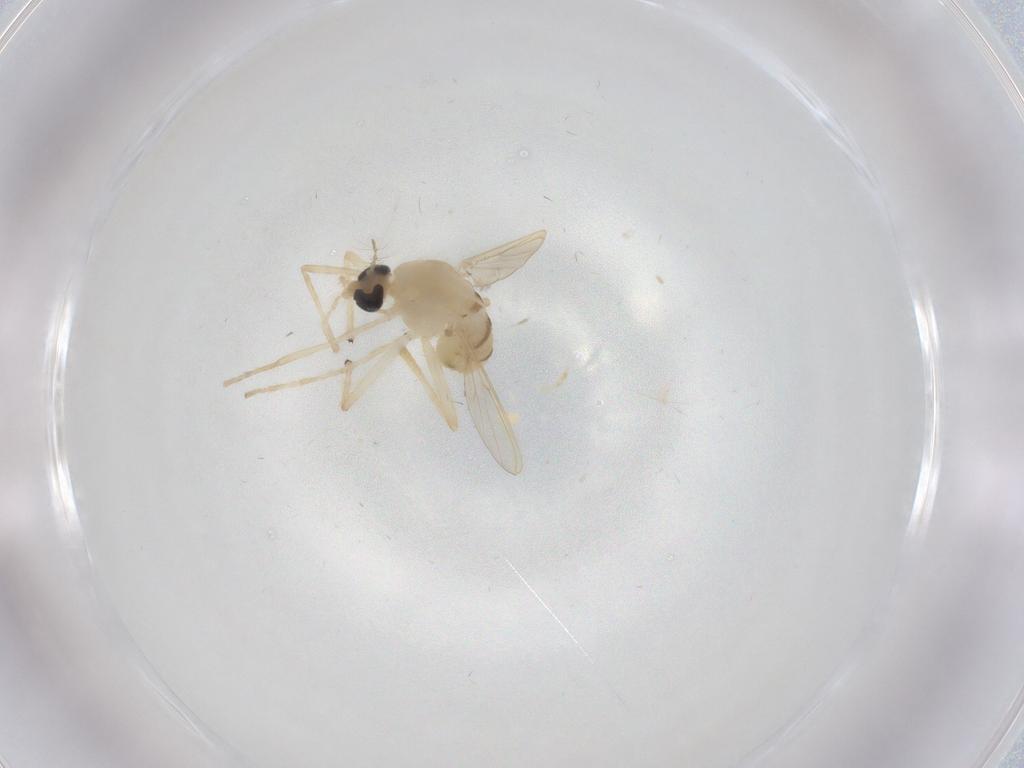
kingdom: Animalia
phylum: Arthropoda
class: Insecta
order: Diptera
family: Chironomidae
